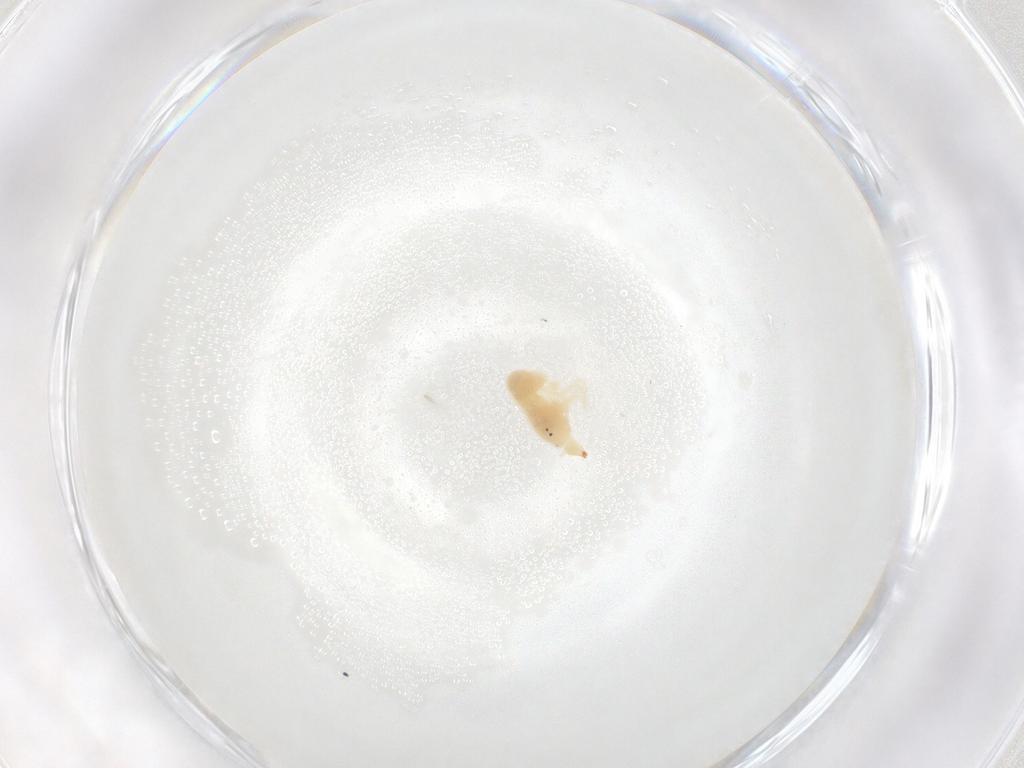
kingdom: Animalia
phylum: Arthropoda
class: Arachnida
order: Trombidiformes
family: Bdellidae
